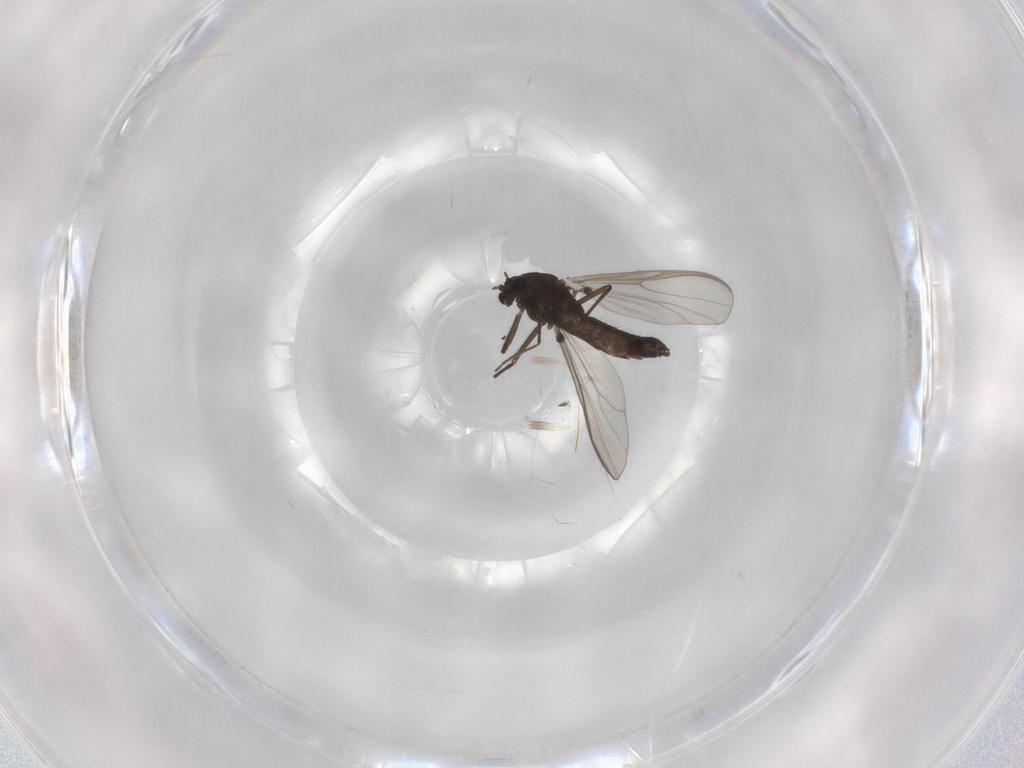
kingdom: Animalia
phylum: Arthropoda
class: Insecta
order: Diptera
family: Chironomidae
